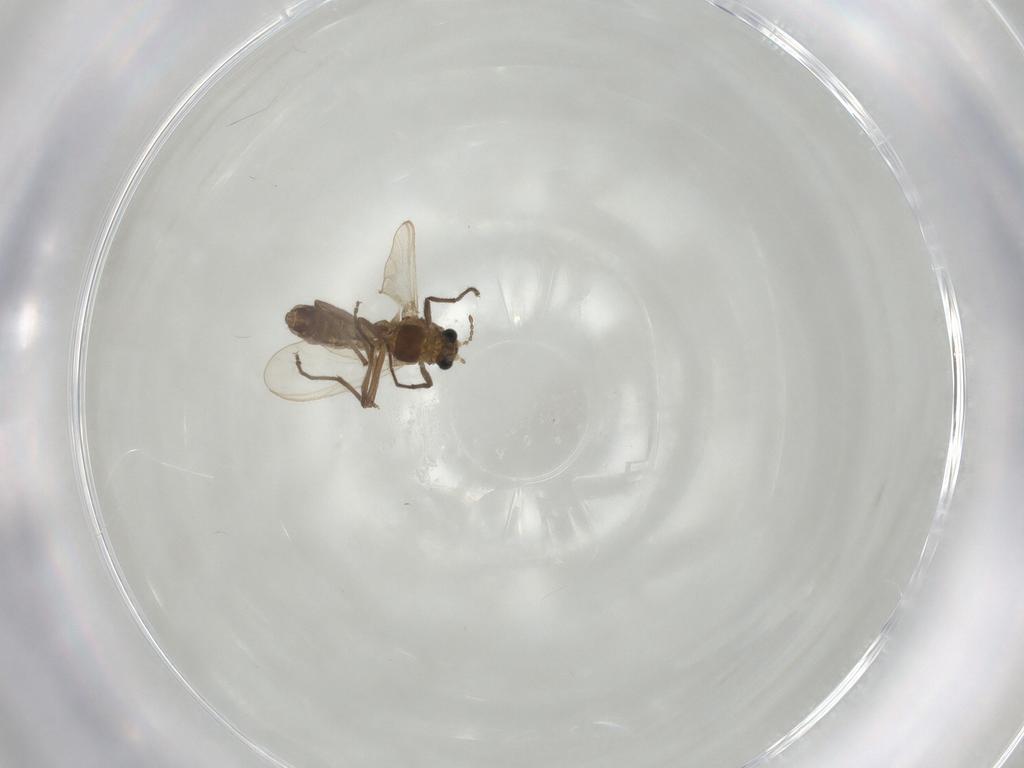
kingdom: Animalia
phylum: Arthropoda
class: Insecta
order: Diptera
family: Chironomidae
